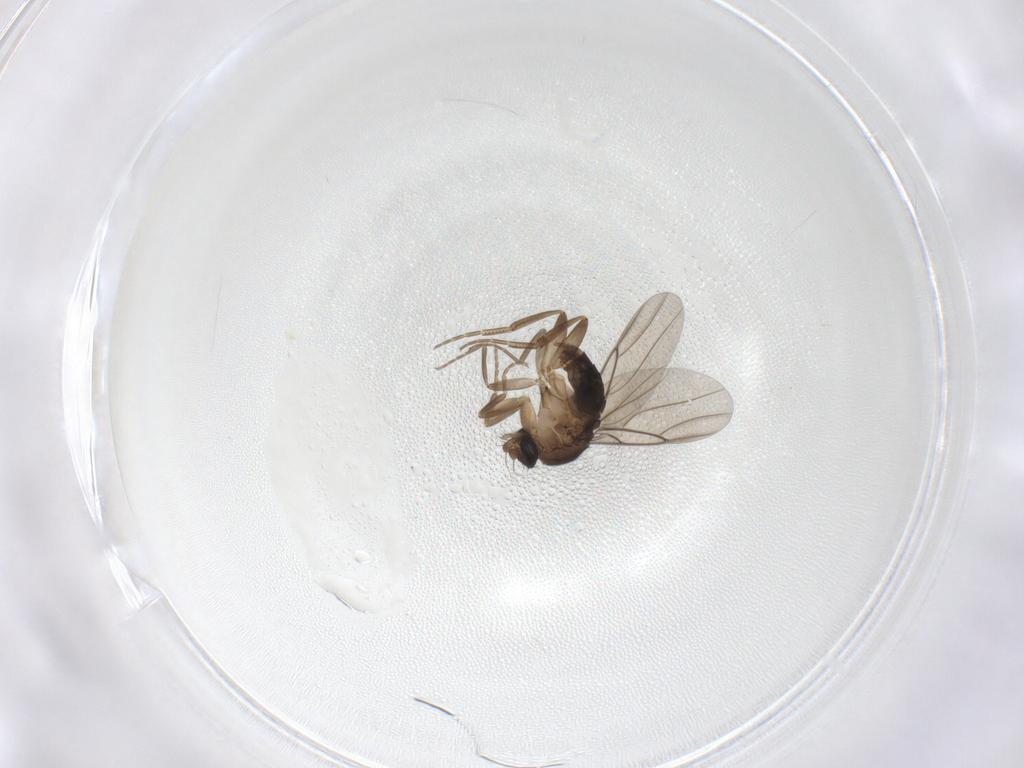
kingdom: Animalia
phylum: Arthropoda
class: Insecta
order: Diptera
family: Phoridae
